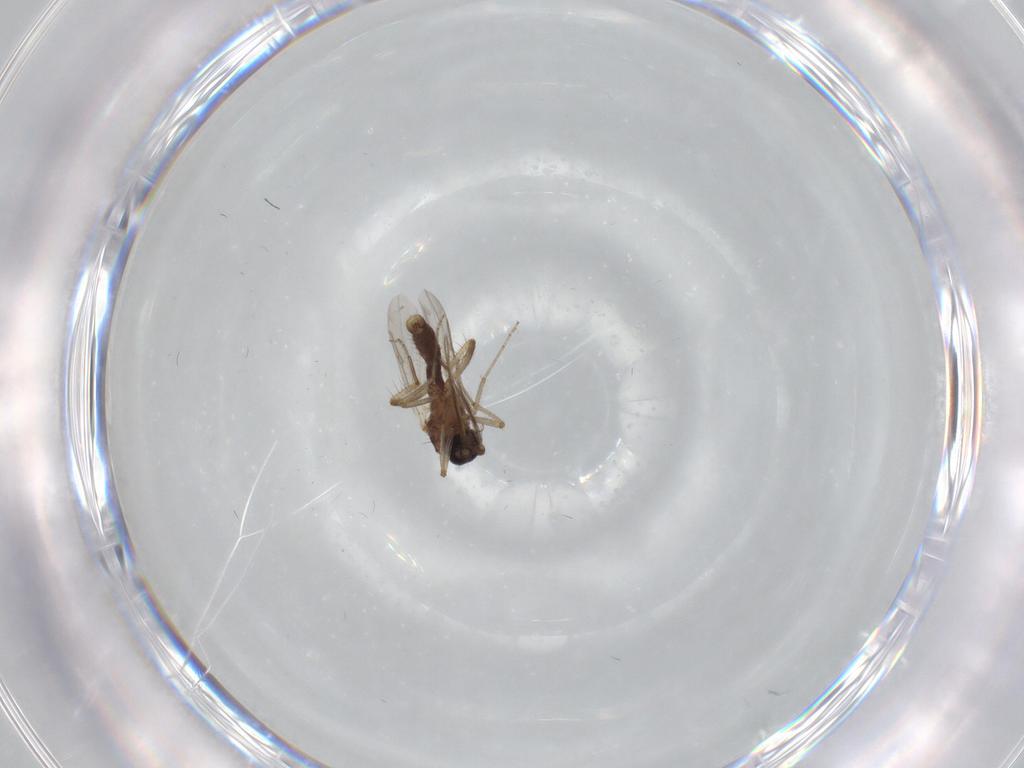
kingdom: Animalia
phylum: Arthropoda
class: Insecta
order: Diptera
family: Ceratopogonidae
